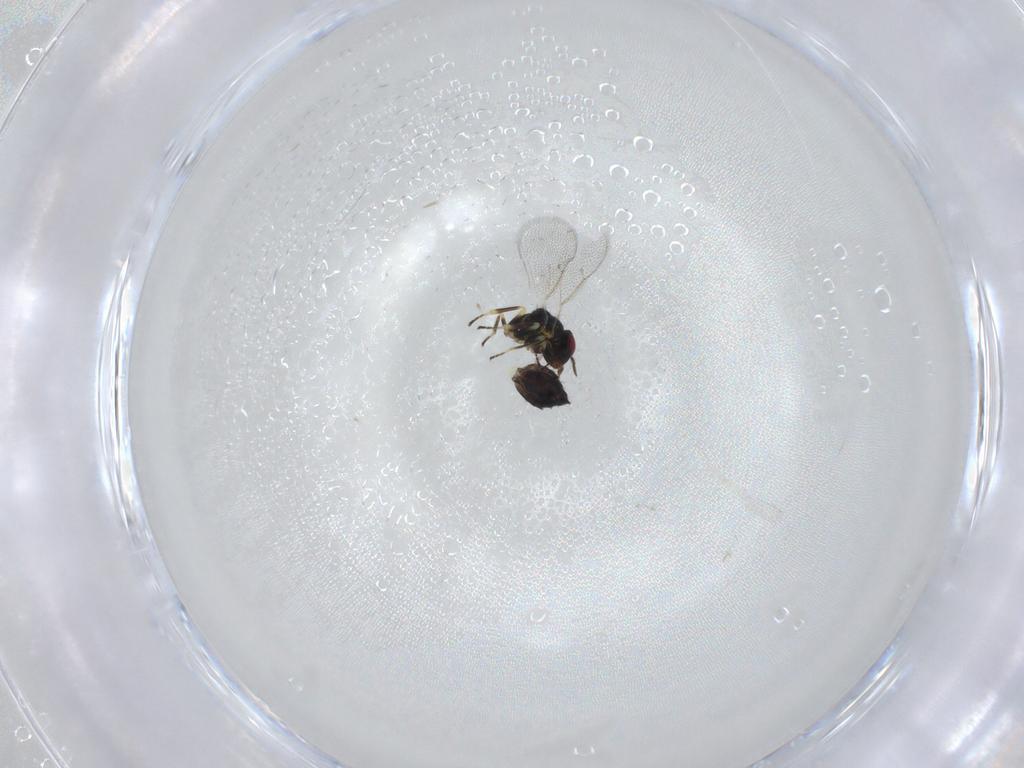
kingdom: Animalia
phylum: Arthropoda
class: Insecta
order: Hymenoptera
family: Eulophidae
